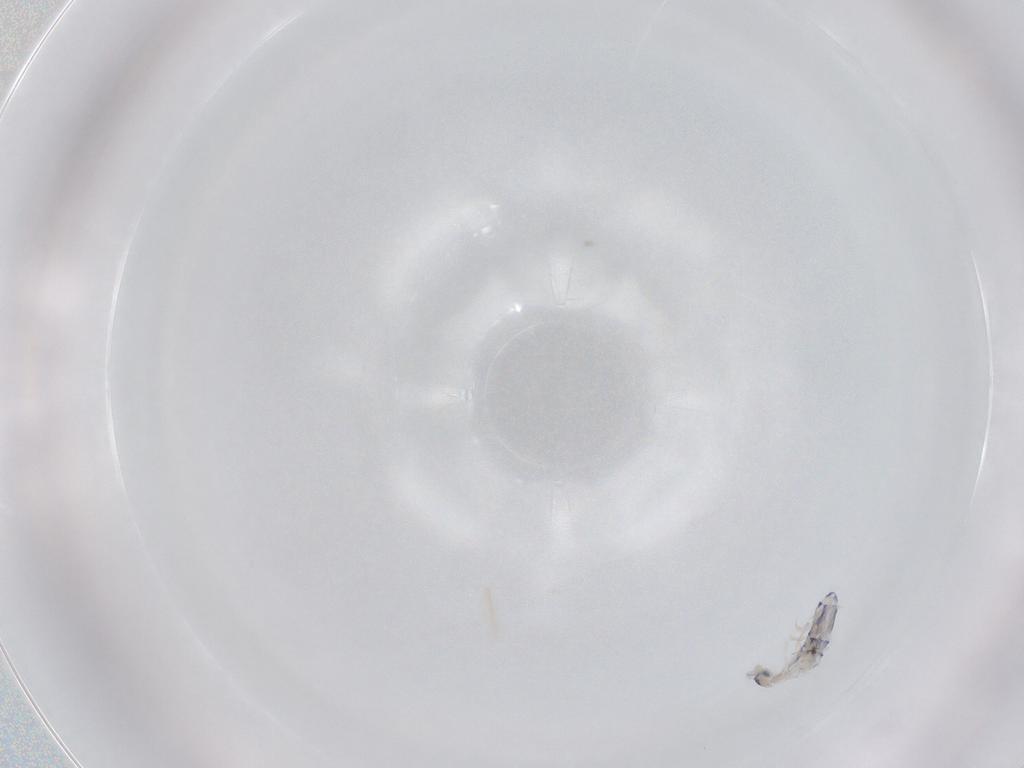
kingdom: Animalia
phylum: Arthropoda
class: Collembola
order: Entomobryomorpha
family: Entomobryidae
